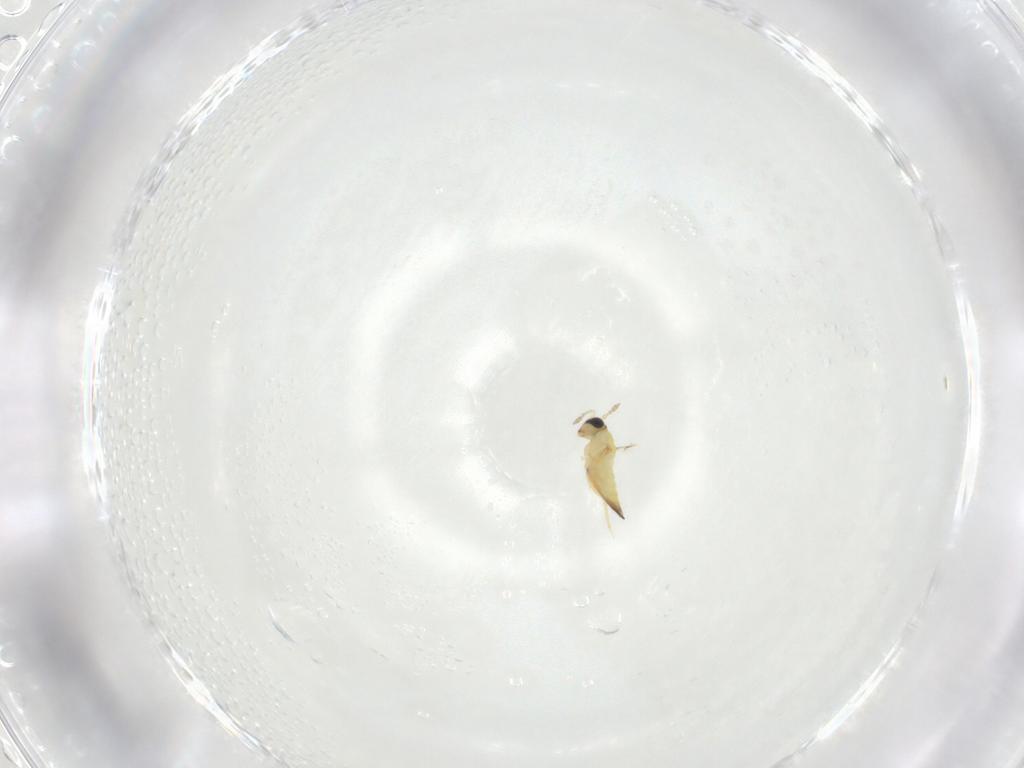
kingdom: Animalia
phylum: Arthropoda
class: Insecta
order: Hymenoptera
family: Trichogrammatidae
